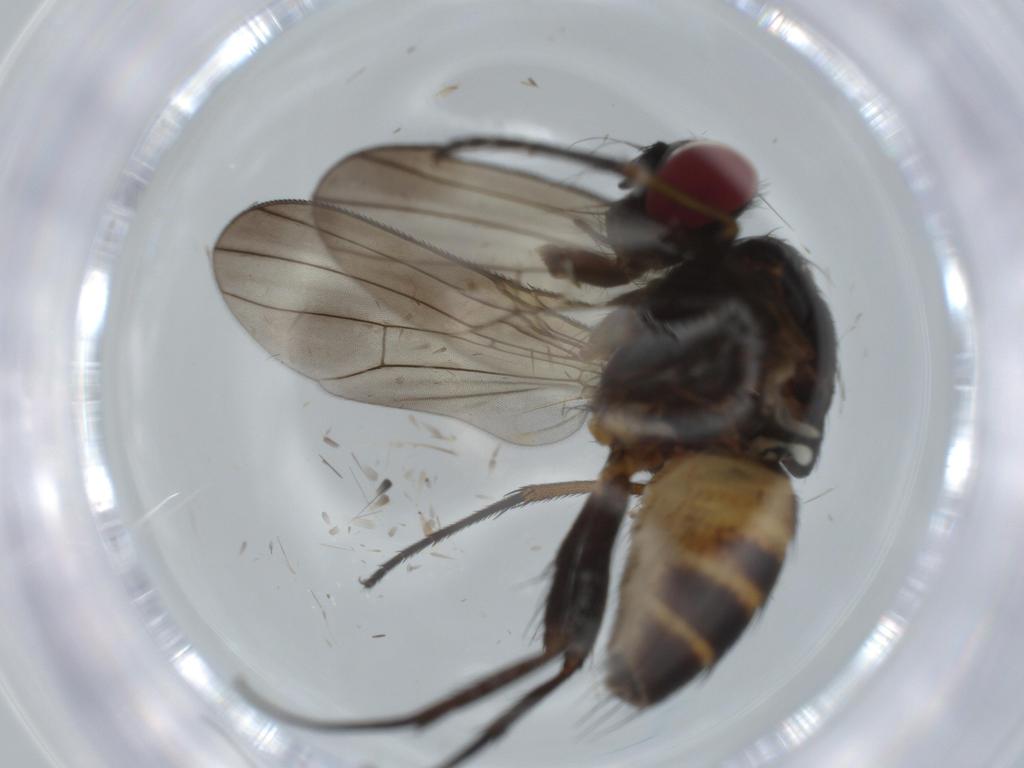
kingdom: Animalia
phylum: Arthropoda
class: Insecta
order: Diptera
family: Muscidae
